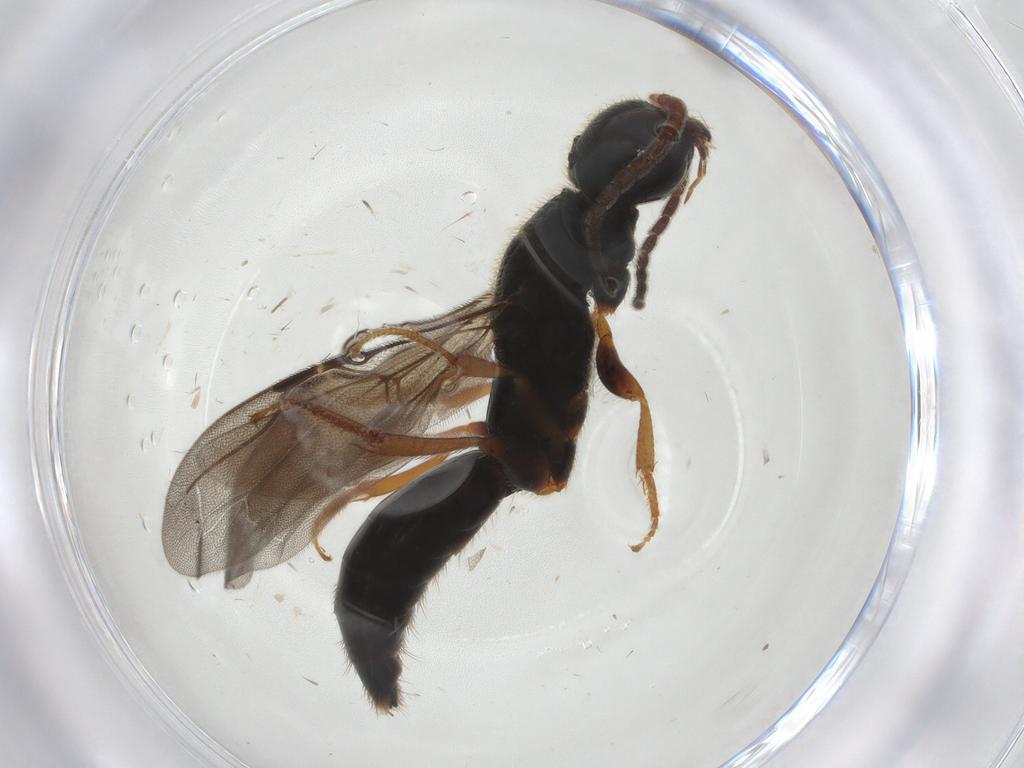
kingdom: Animalia
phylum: Arthropoda
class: Insecta
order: Hymenoptera
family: Bethylidae
